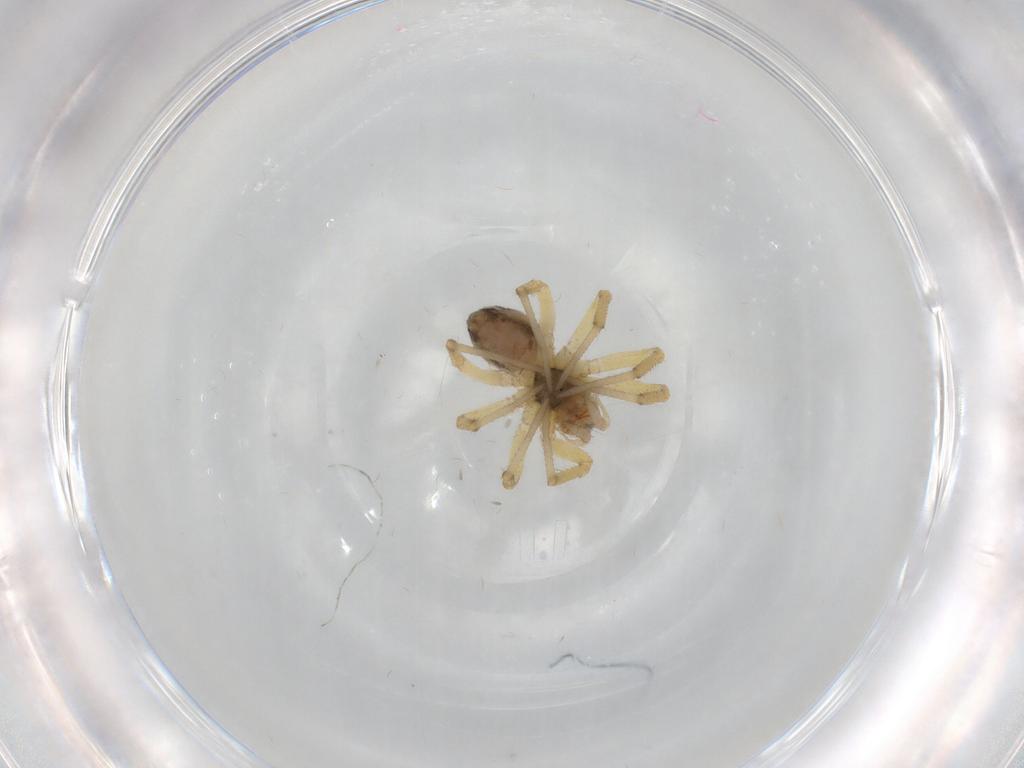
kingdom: Animalia
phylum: Arthropoda
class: Arachnida
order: Araneae
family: Linyphiidae
